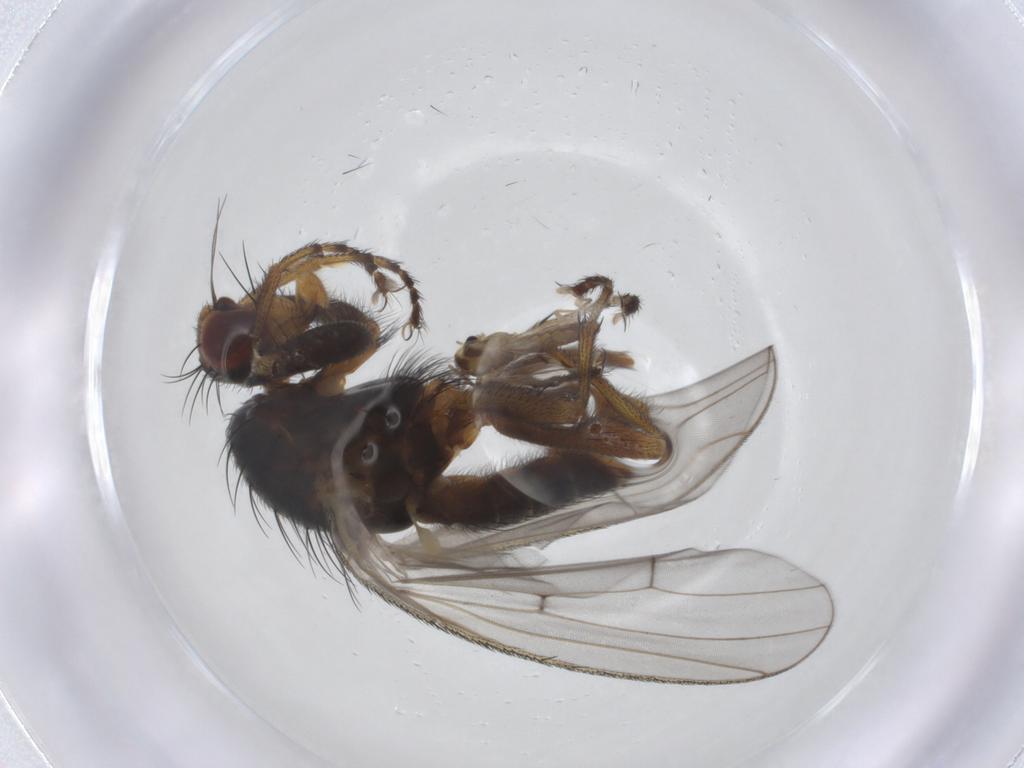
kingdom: Animalia
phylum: Arthropoda
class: Insecta
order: Diptera
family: Heleomyzidae
